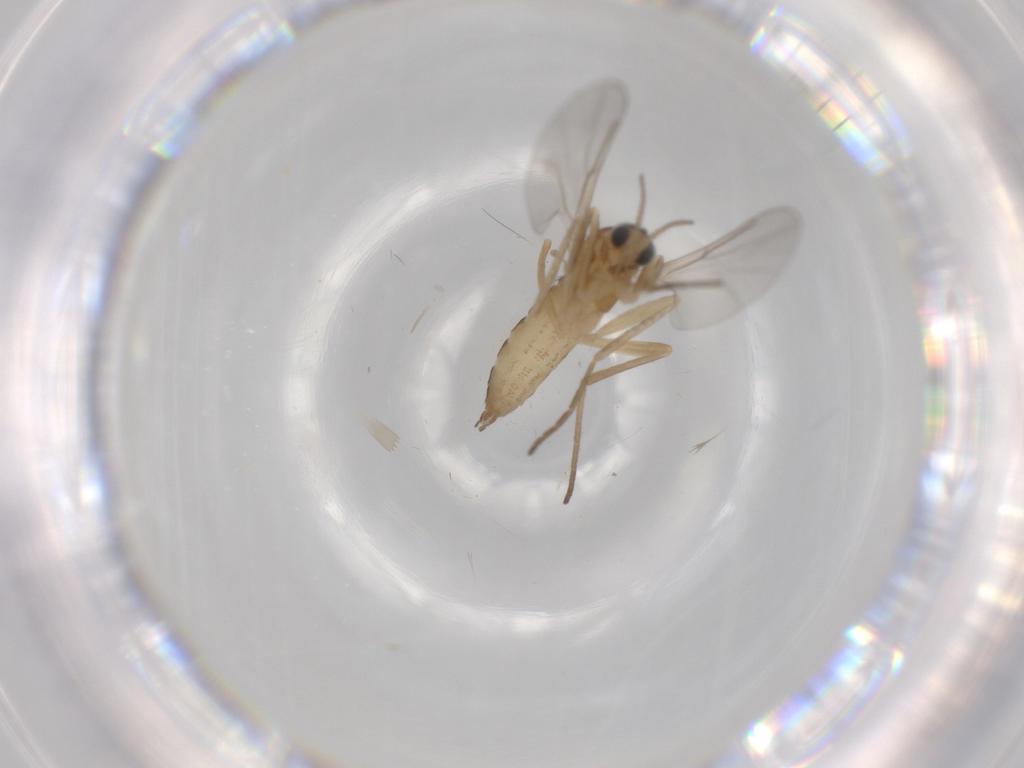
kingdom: Animalia
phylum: Arthropoda
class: Insecta
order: Diptera
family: Cecidomyiidae
